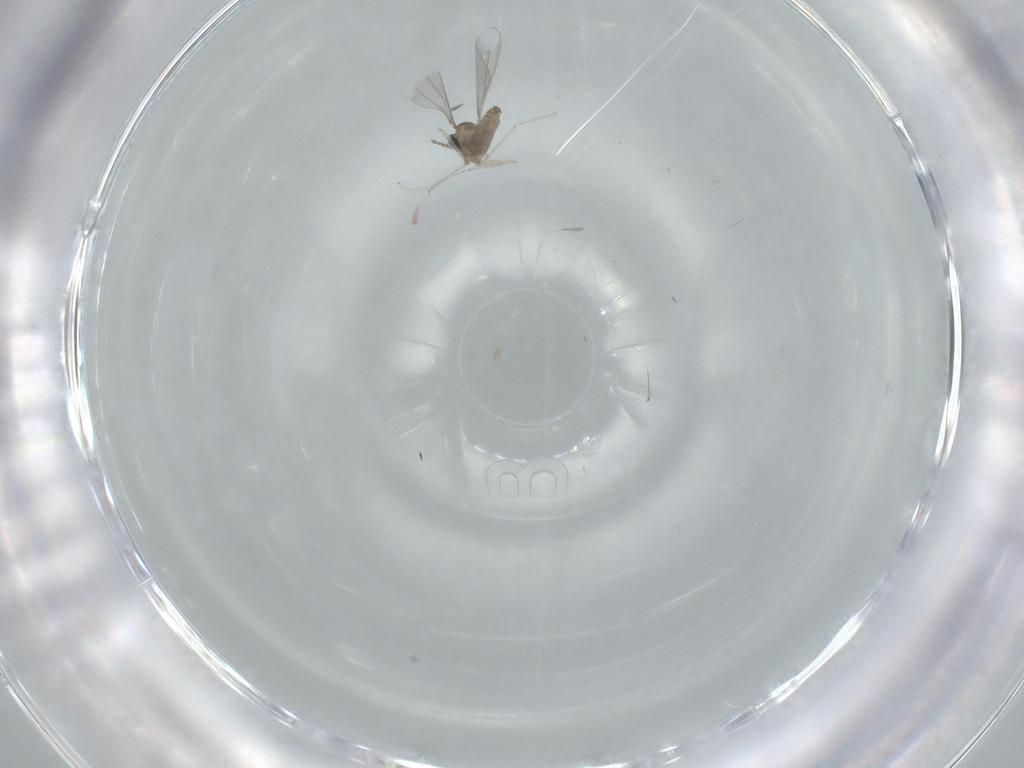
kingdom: Animalia
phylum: Arthropoda
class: Insecta
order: Diptera
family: Cecidomyiidae
